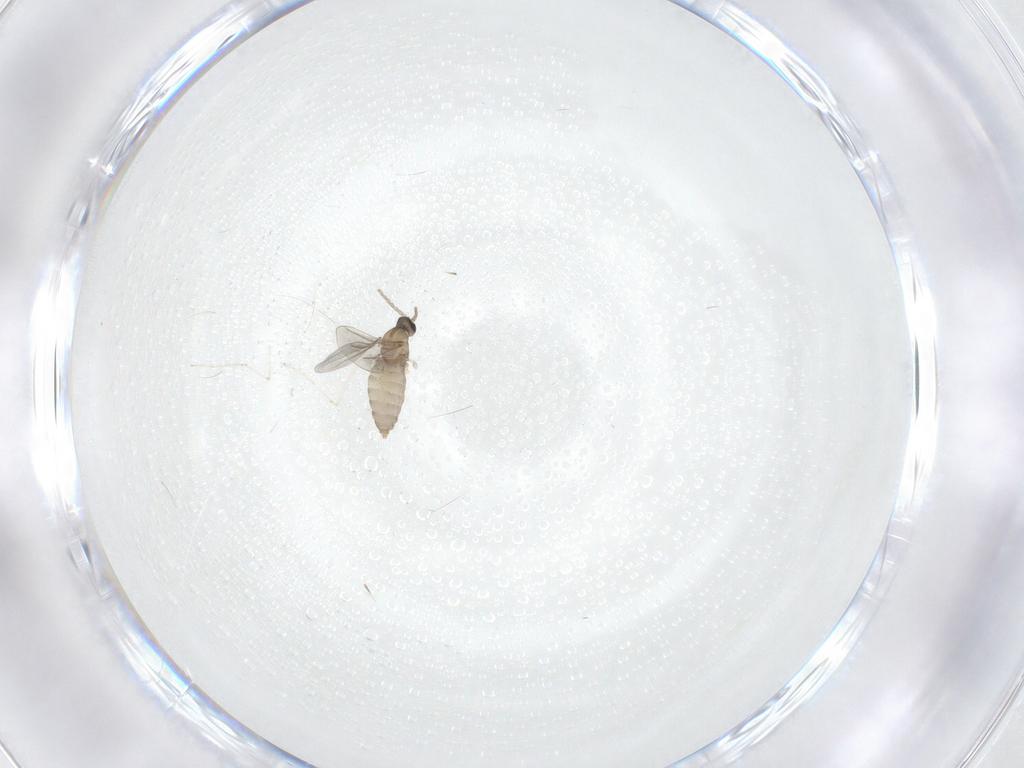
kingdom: Animalia
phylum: Arthropoda
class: Insecta
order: Diptera
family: Cecidomyiidae
